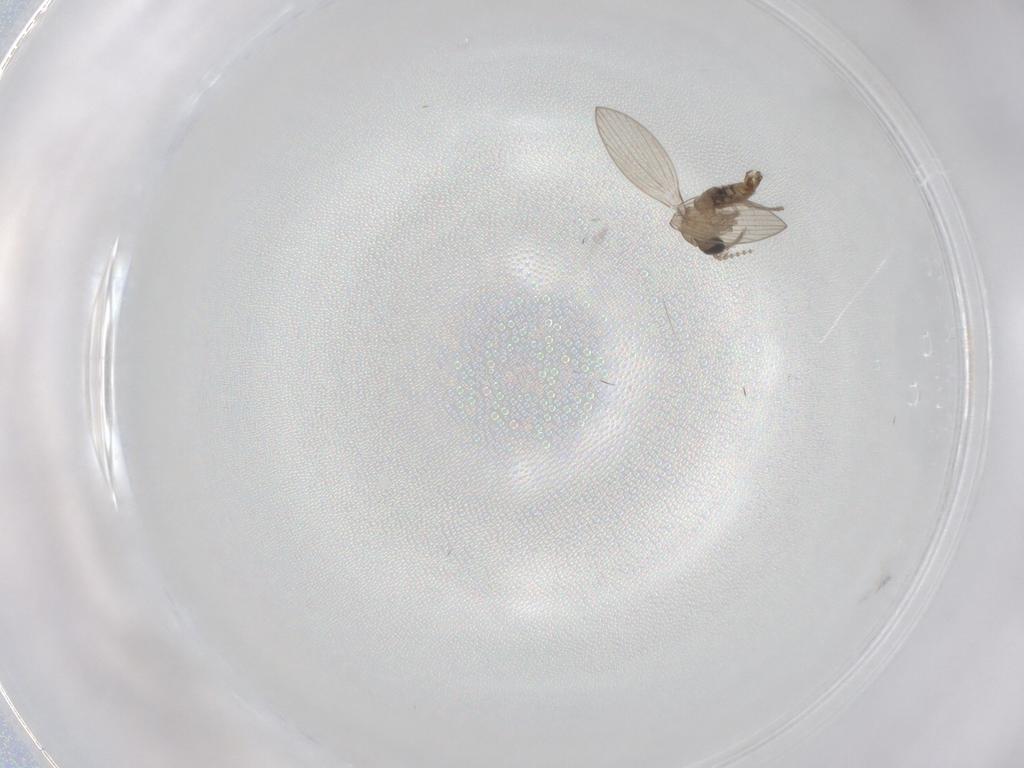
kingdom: Animalia
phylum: Arthropoda
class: Insecta
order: Diptera
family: Psychodidae
